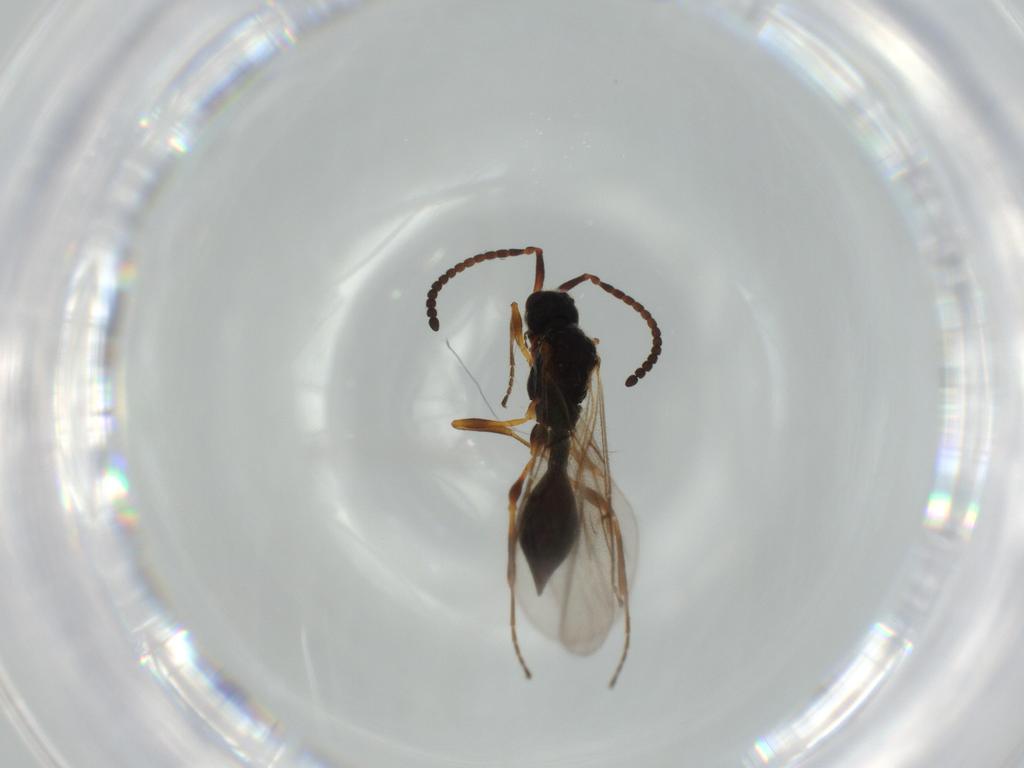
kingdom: Animalia
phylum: Arthropoda
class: Insecta
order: Hymenoptera
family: Diapriidae
